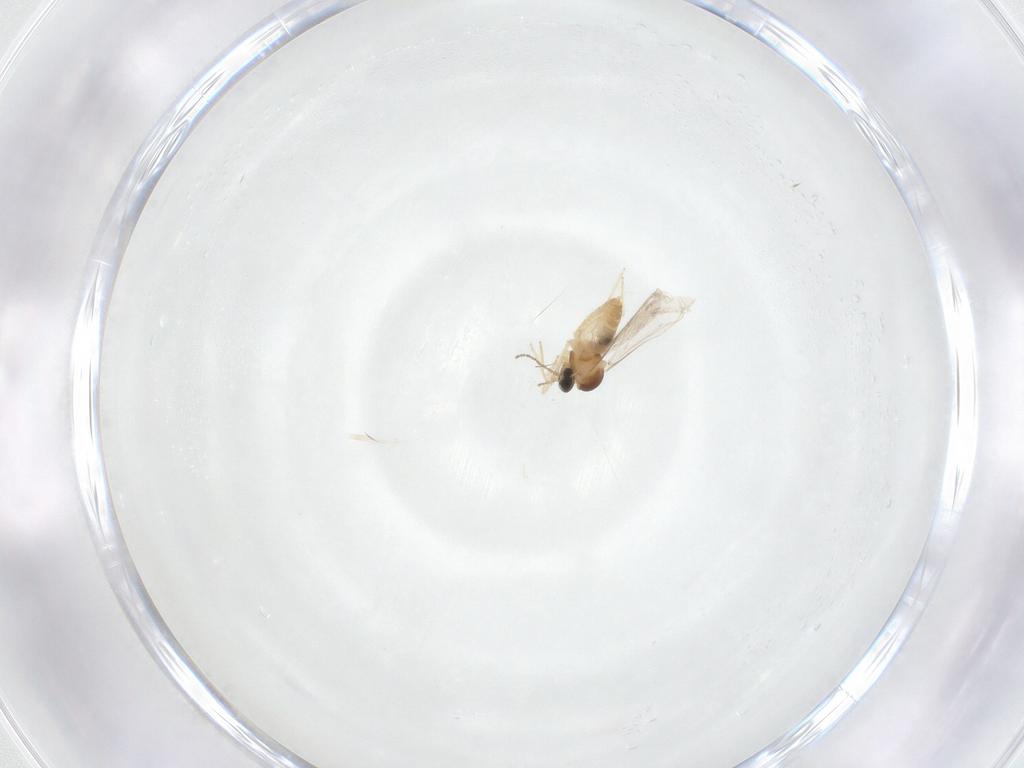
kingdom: Animalia
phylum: Arthropoda
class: Insecta
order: Diptera
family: Cecidomyiidae
